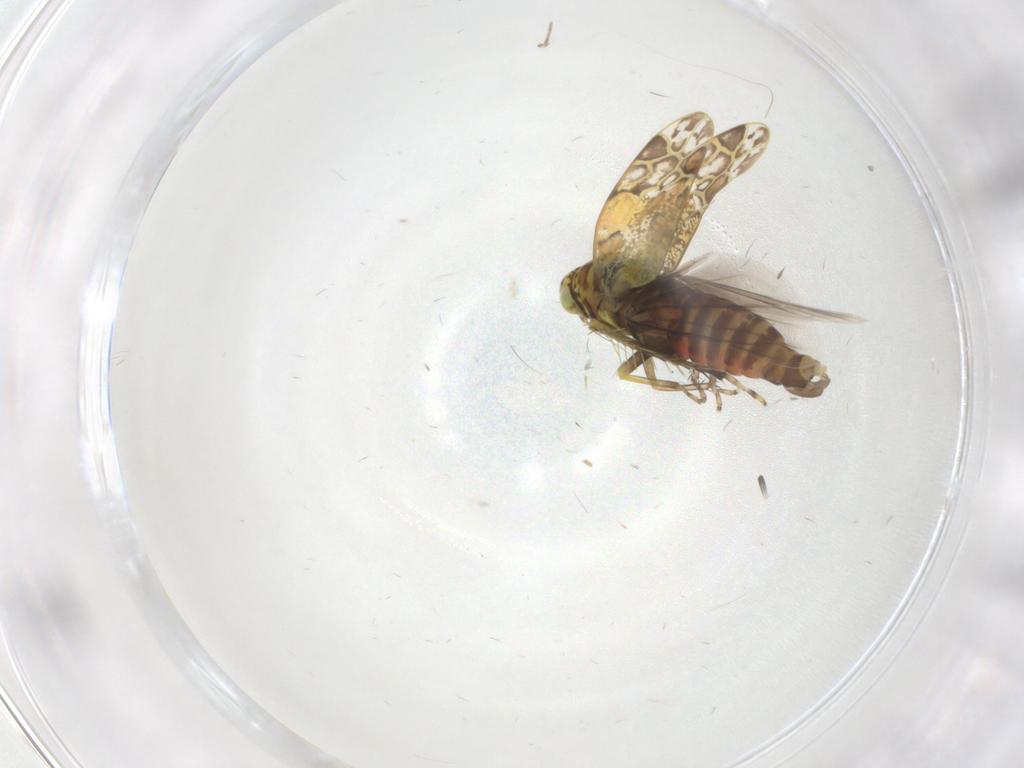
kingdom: Animalia
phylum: Arthropoda
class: Insecta
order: Hemiptera
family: Cicadellidae
